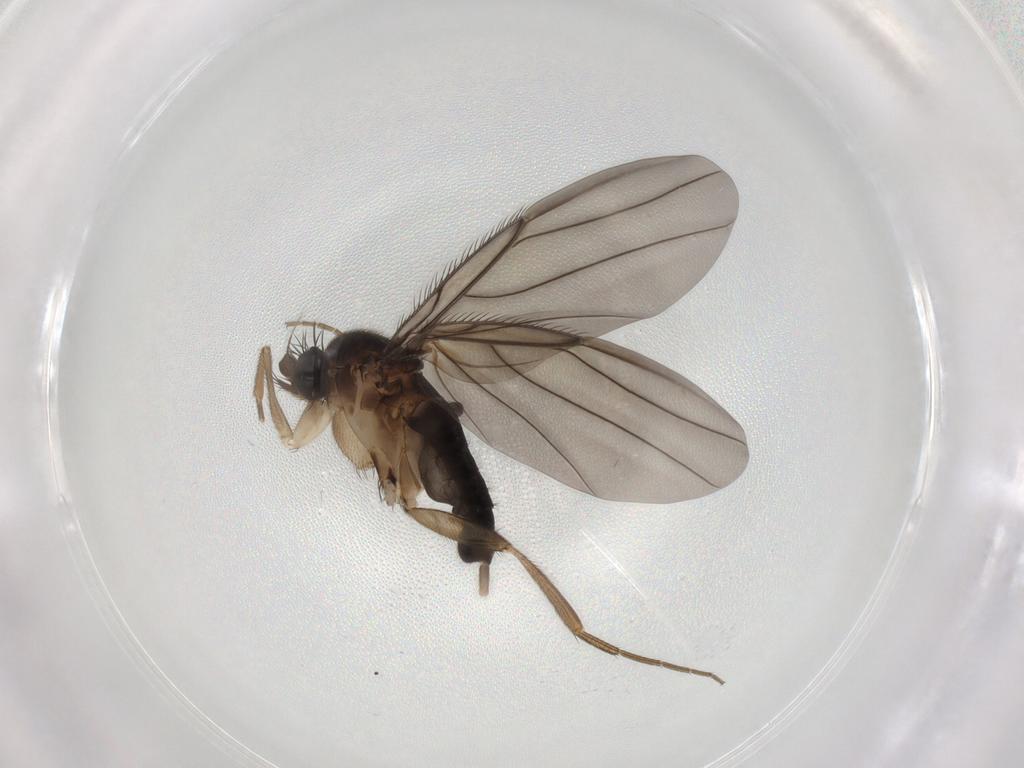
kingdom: Animalia
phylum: Arthropoda
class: Insecta
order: Diptera
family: Phoridae
